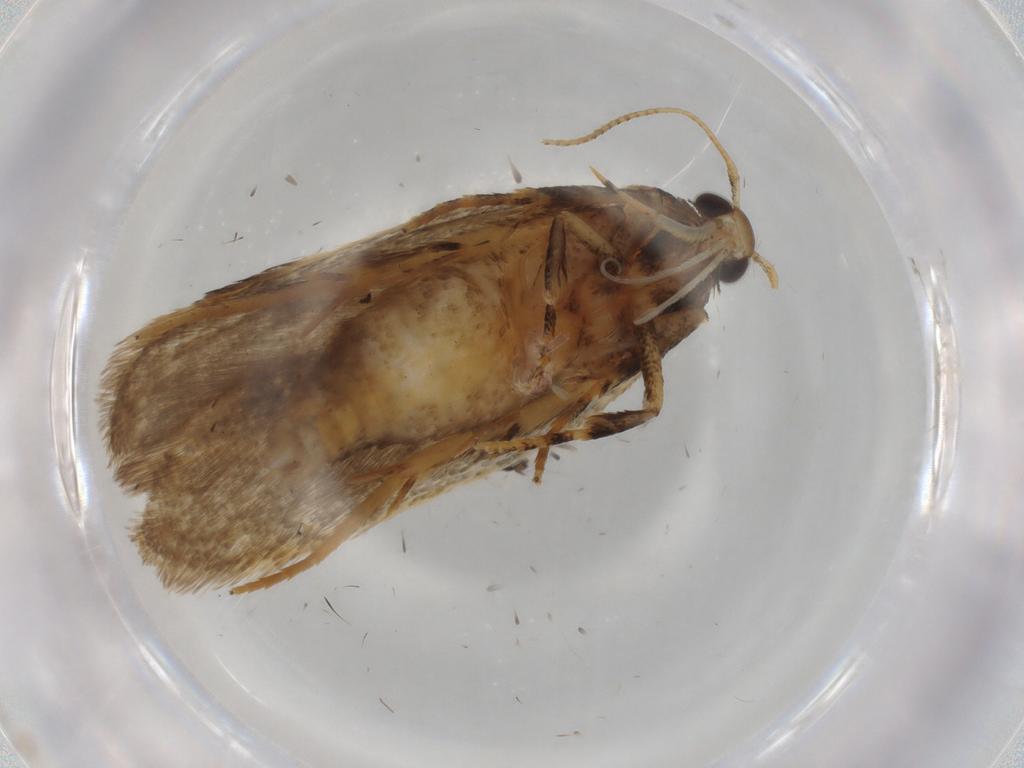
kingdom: Animalia
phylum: Arthropoda
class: Insecta
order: Lepidoptera
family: Gelechiidae
